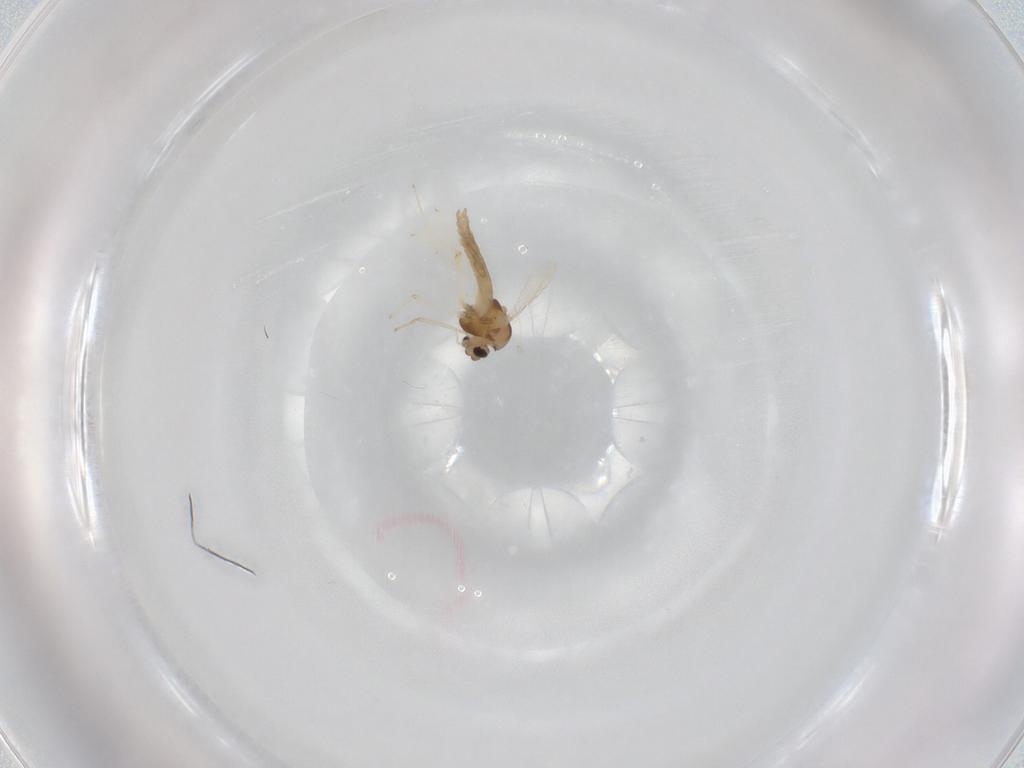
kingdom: Animalia
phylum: Arthropoda
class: Insecta
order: Diptera
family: Chironomidae
